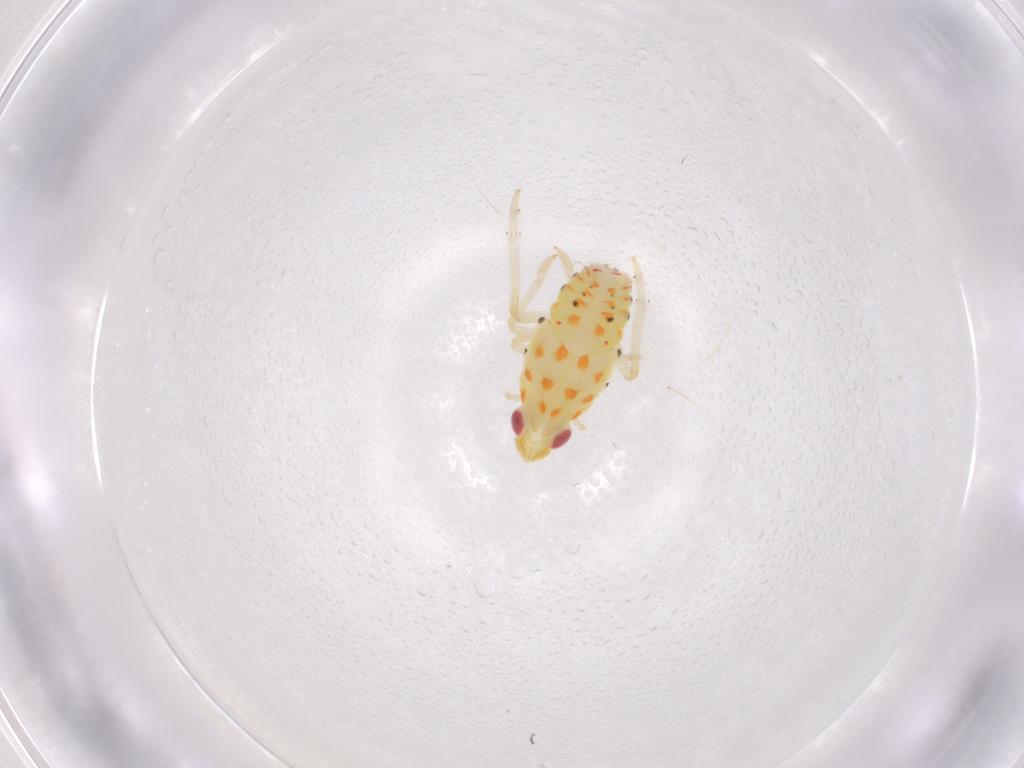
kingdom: Animalia
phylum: Arthropoda
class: Insecta
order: Hemiptera
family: Tropiduchidae
